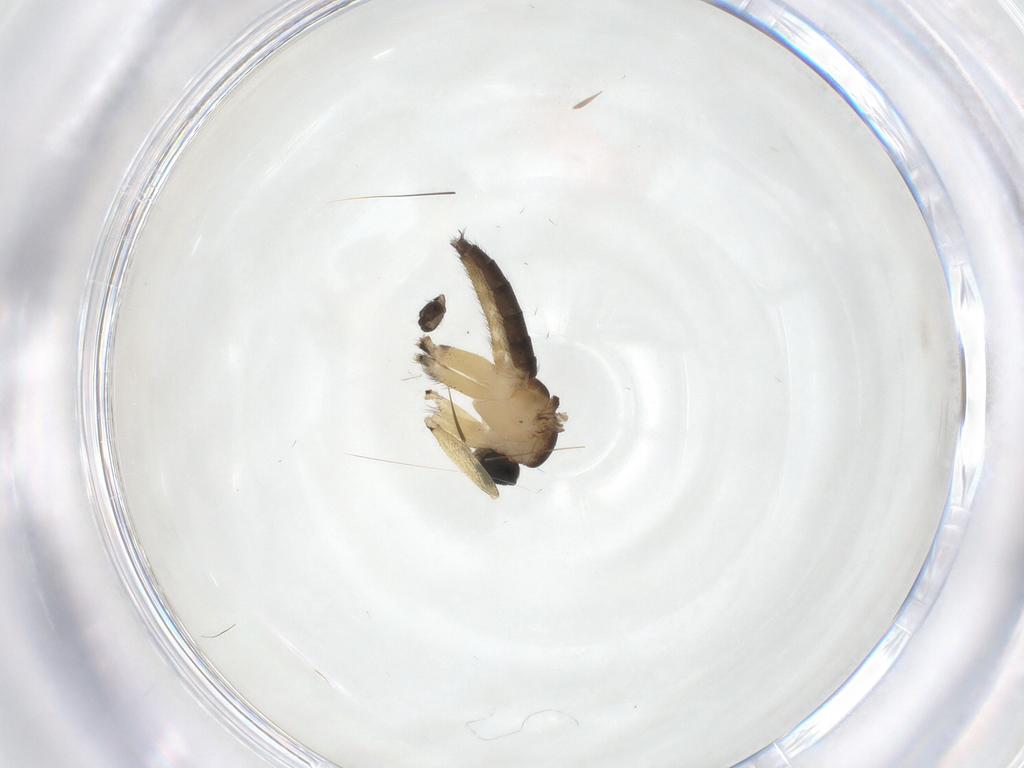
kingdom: Animalia
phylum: Arthropoda
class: Insecta
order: Diptera
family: Sciaridae
